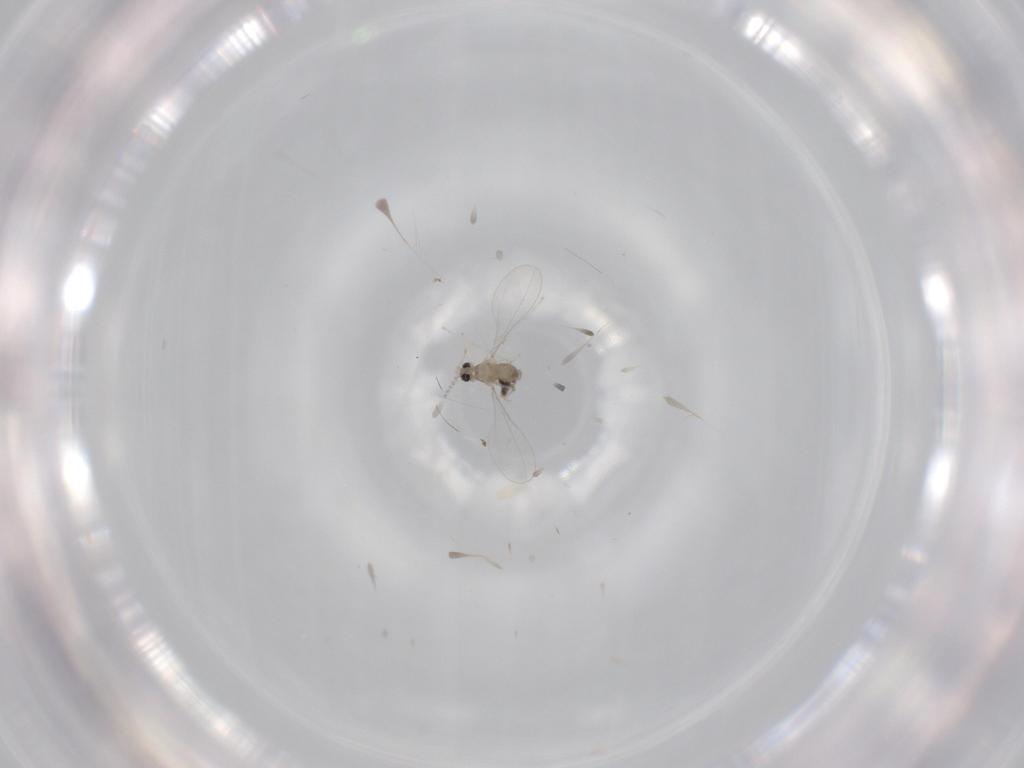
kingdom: Animalia
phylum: Arthropoda
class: Insecta
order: Diptera
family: Cecidomyiidae
